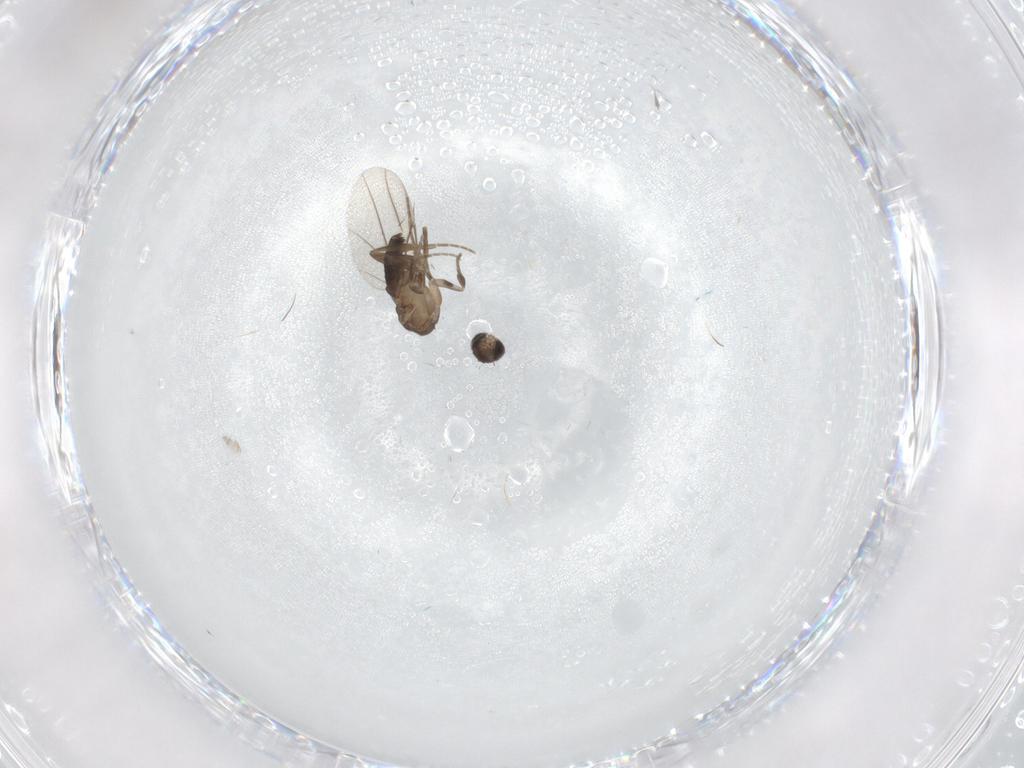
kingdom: Animalia
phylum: Arthropoda
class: Insecta
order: Diptera
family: Phoridae
